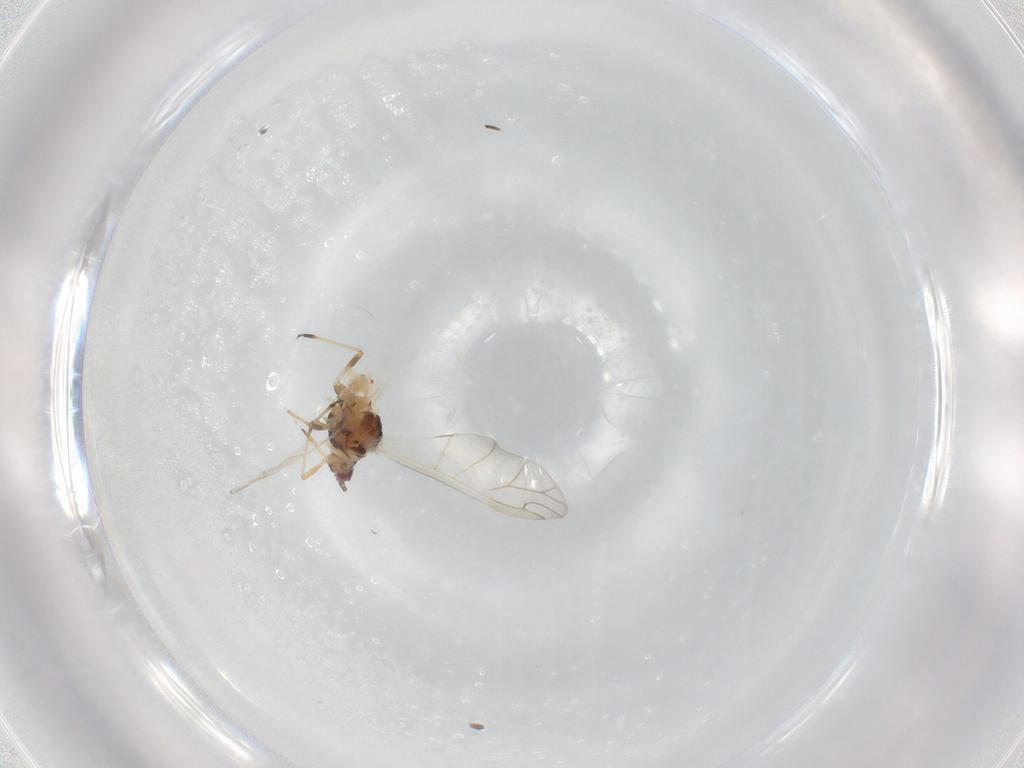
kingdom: Animalia
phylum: Arthropoda
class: Insecta
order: Hemiptera
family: Aphididae
